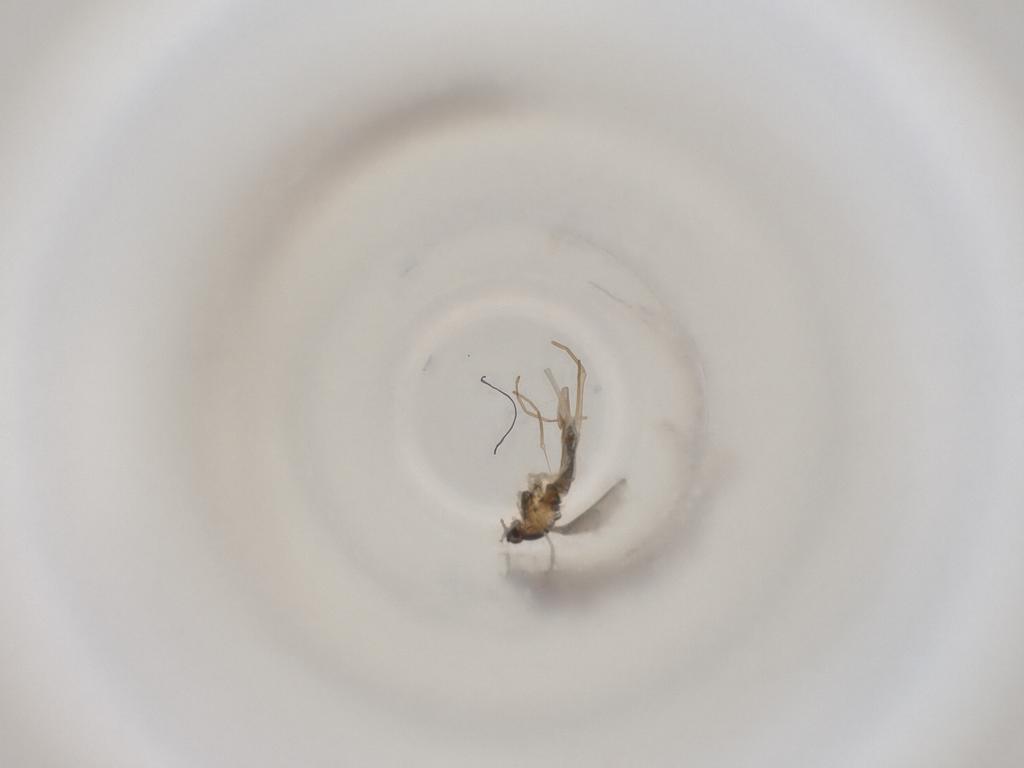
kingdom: Animalia
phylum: Arthropoda
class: Insecta
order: Diptera
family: Cecidomyiidae
